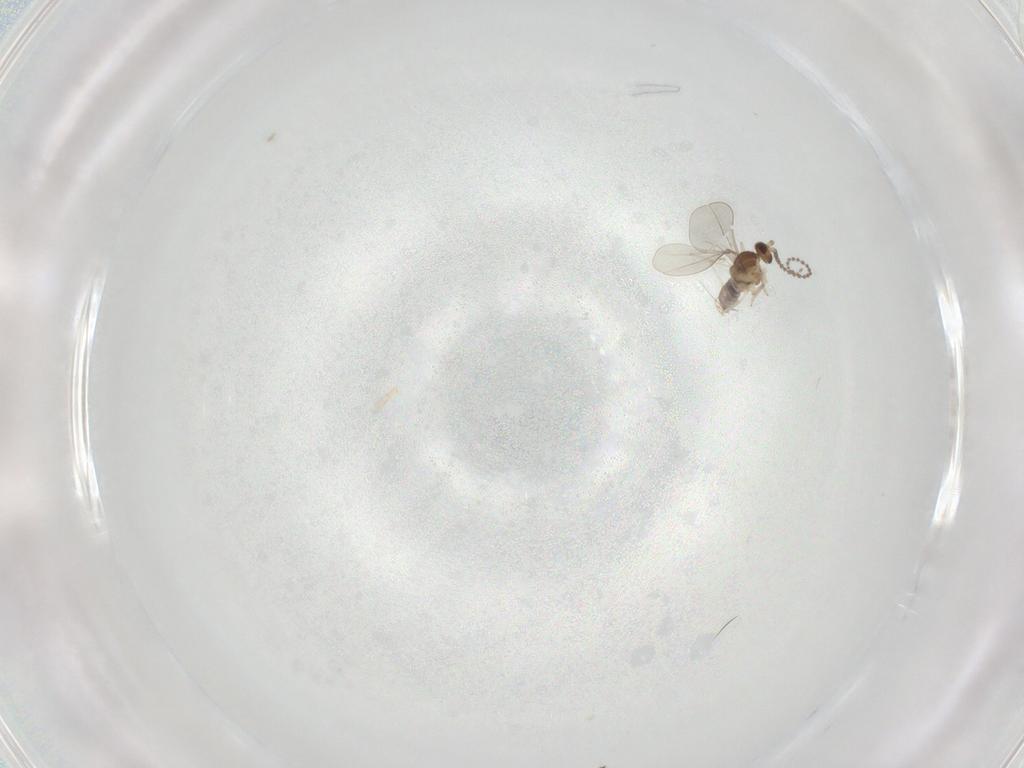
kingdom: Animalia
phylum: Arthropoda
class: Insecta
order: Diptera
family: Cecidomyiidae
